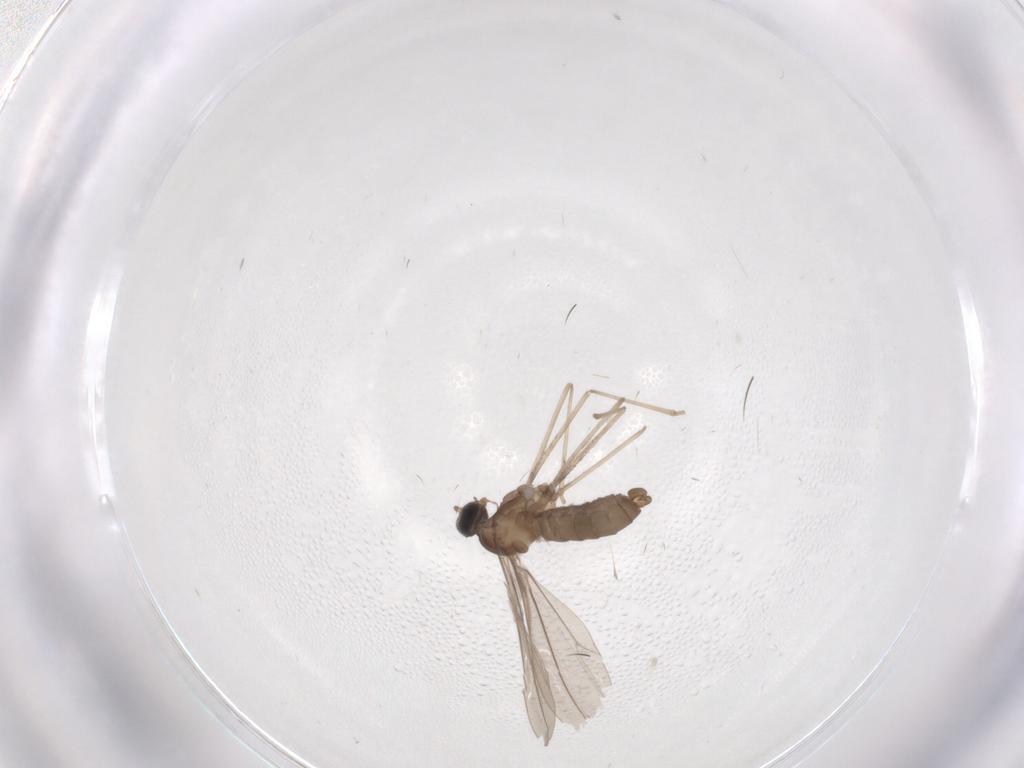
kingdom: Animalia
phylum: Arthropoda
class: Insecta
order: Diptera
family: Cecidomyiidae
